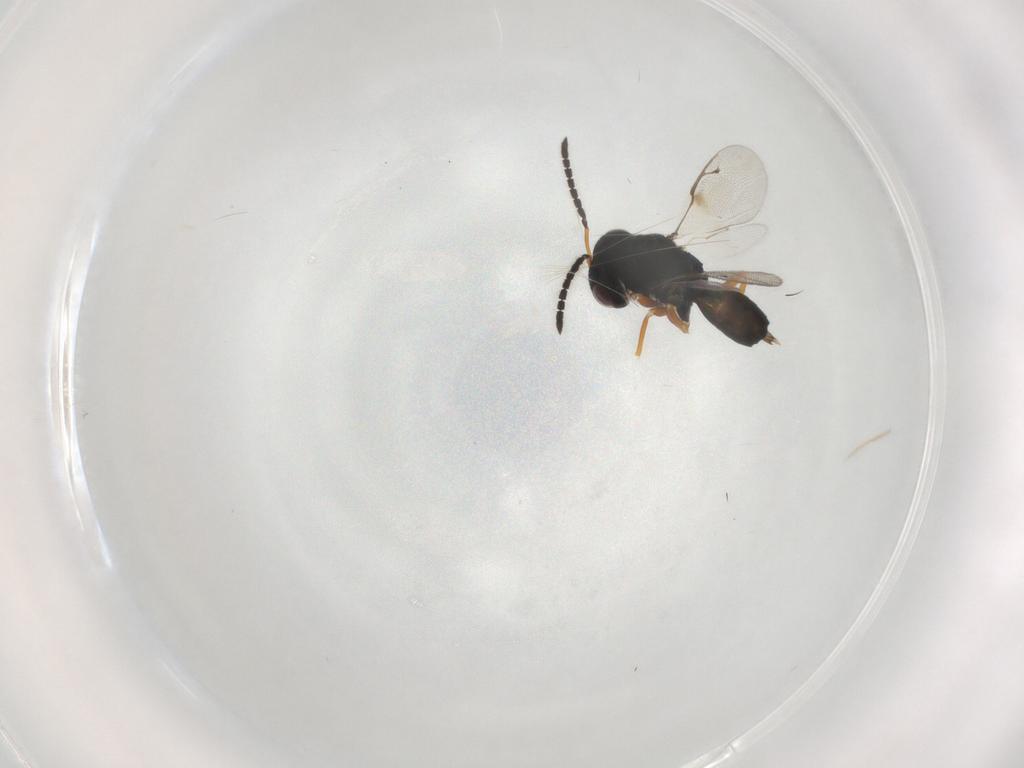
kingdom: Animalia
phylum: Arthropoda
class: Insecta
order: Hymenoptera
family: Pteromalidae
